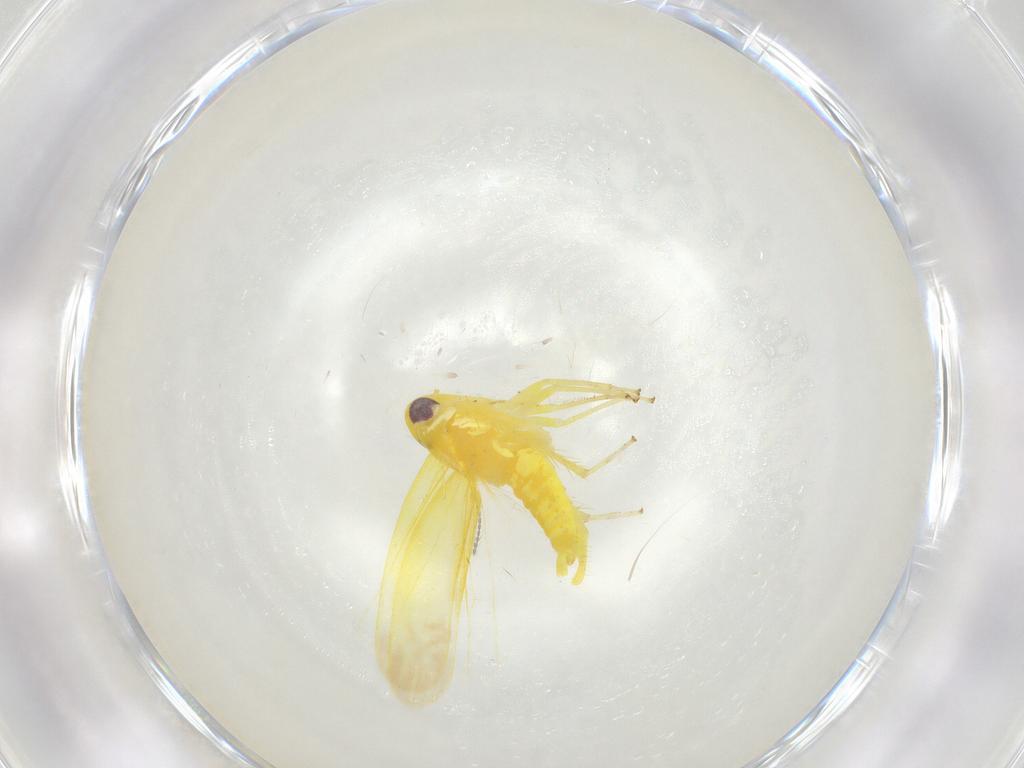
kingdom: Animalia
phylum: Arthropoda
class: Insecta
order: Hemiptera
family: Cicadellidae
